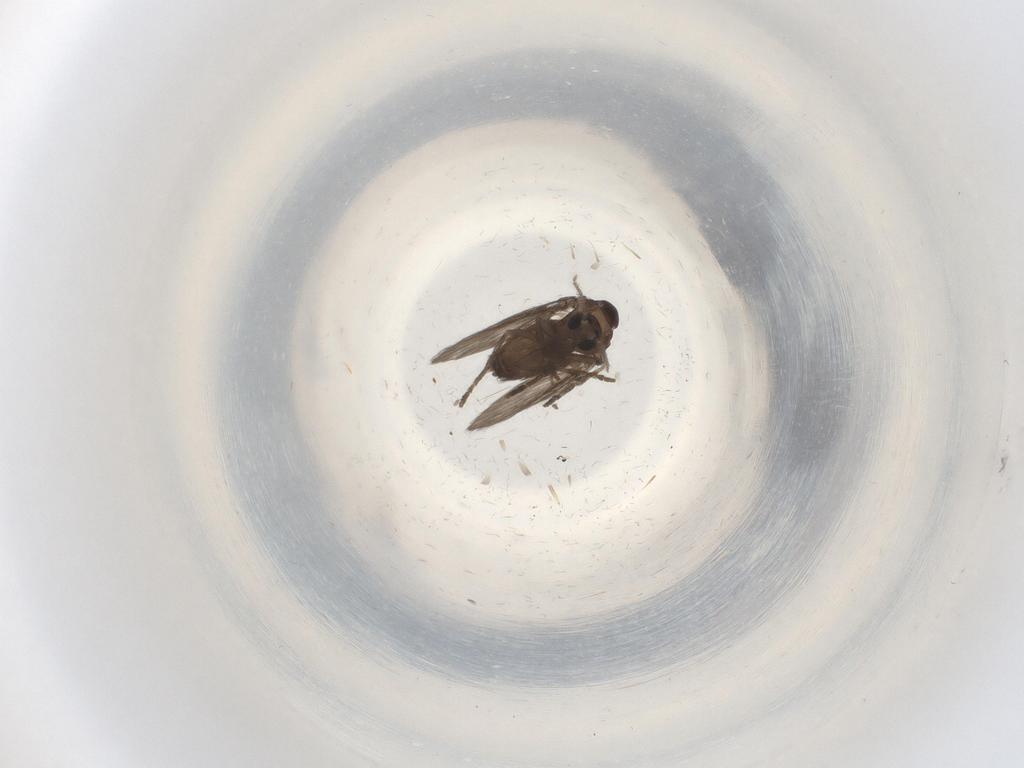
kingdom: Animalia
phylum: Arthropoda
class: Insecta
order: Diptera
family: Psychodidae
